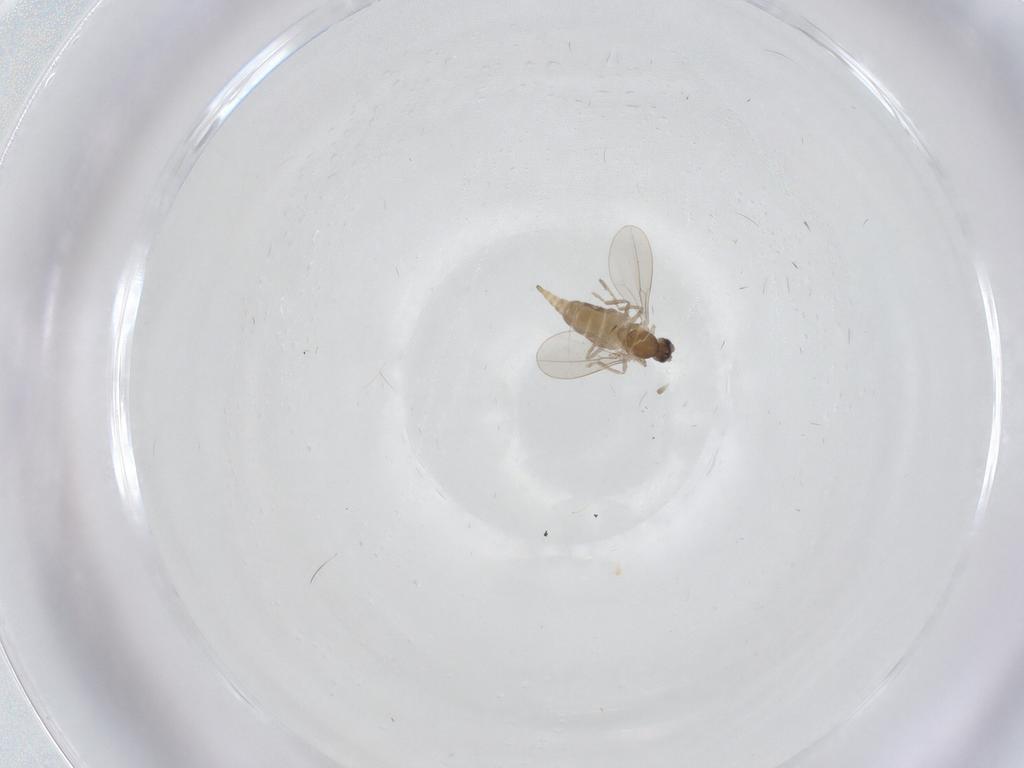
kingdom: Animalia
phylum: Arthropoda
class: Insecta
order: Diptera
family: Cecidomyiidae
